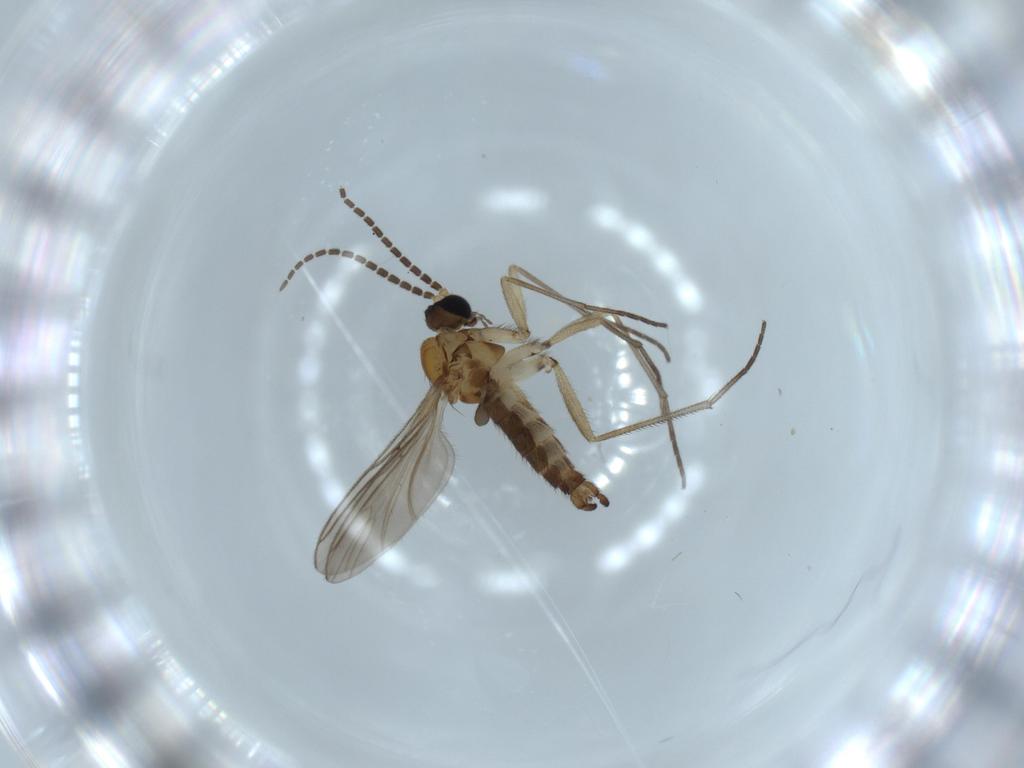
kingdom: Animalia
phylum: Arthropoda
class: Insecta
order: Diptera
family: Sciaridae
